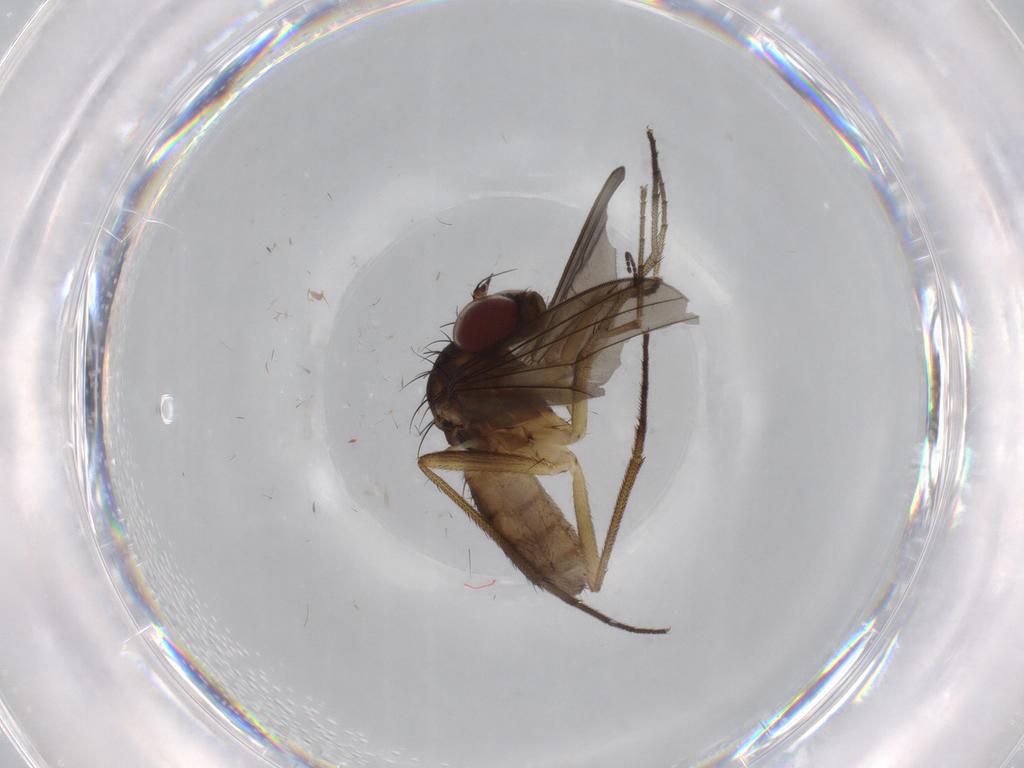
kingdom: Animalia
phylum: Arthropoda
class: Insecta
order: Diptera
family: Dolichopodidae
